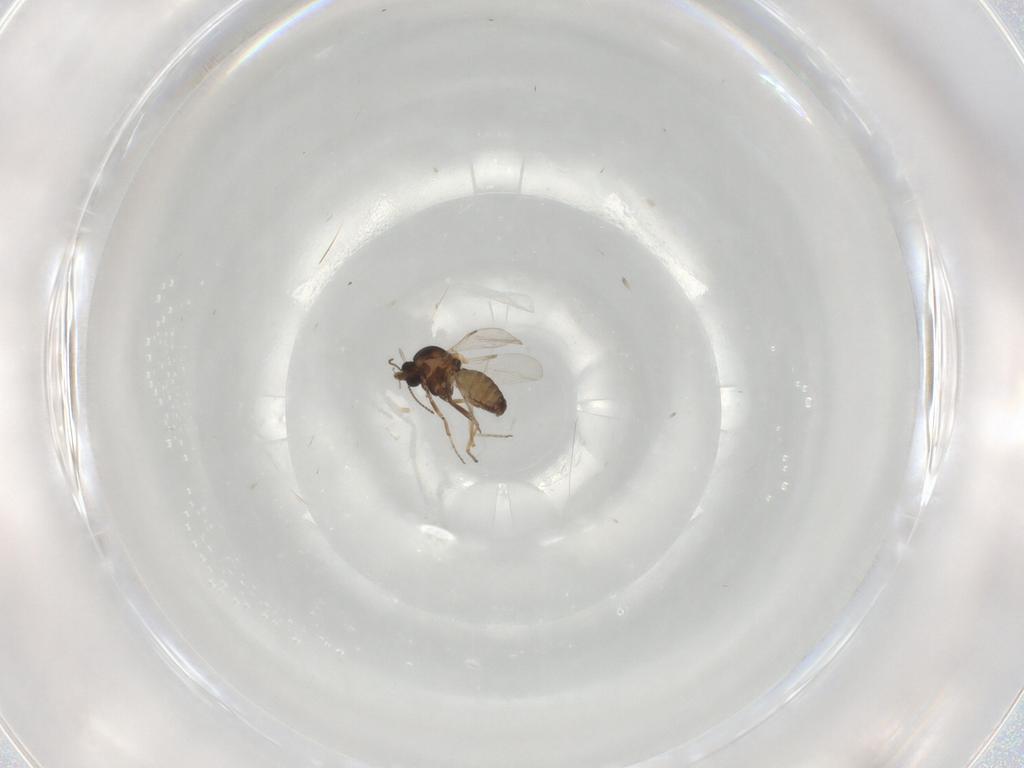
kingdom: Animalia
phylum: Arthropoda
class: Insecta
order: Diptera
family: Ceratopogonidae
